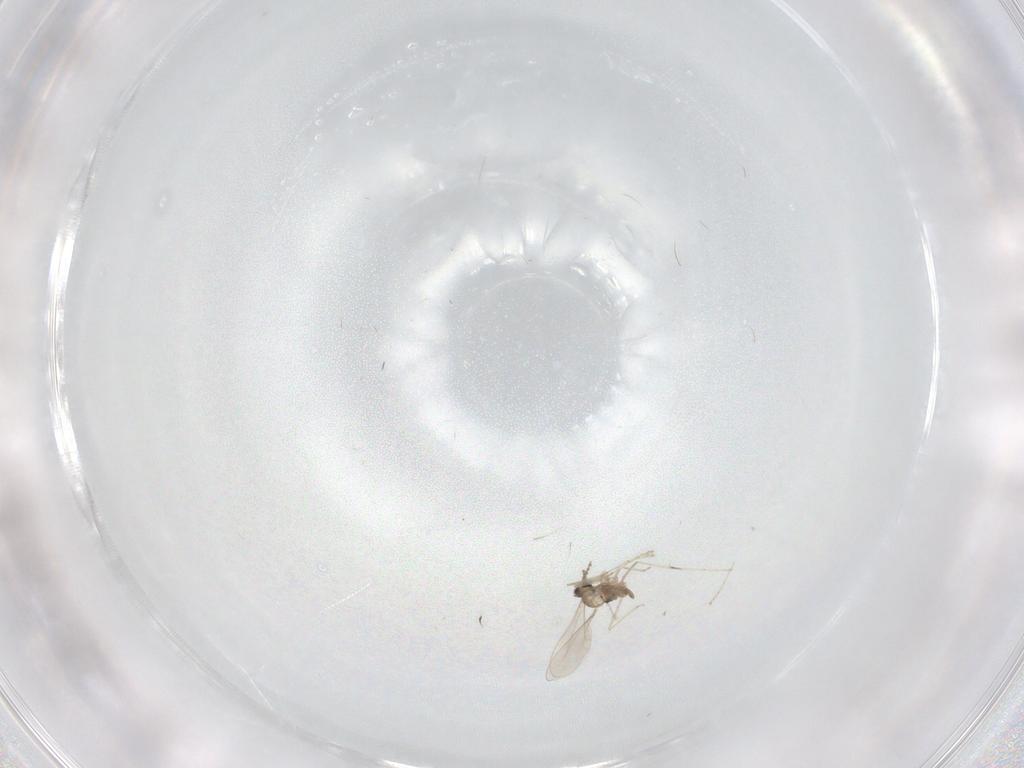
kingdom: Animalia
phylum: Arthropoda
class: Insecta
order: Diptera
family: Cecidomyiidae
